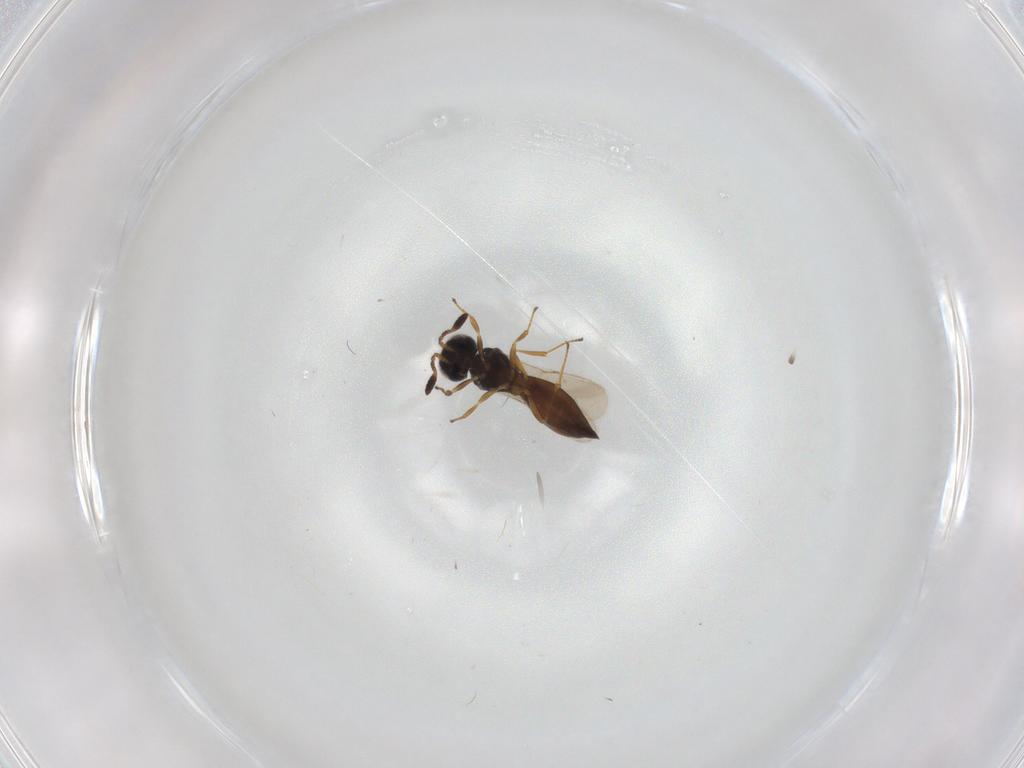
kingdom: Animalia
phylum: Arthropoda
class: Insecta
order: Hymenoptera
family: Scelionidae
